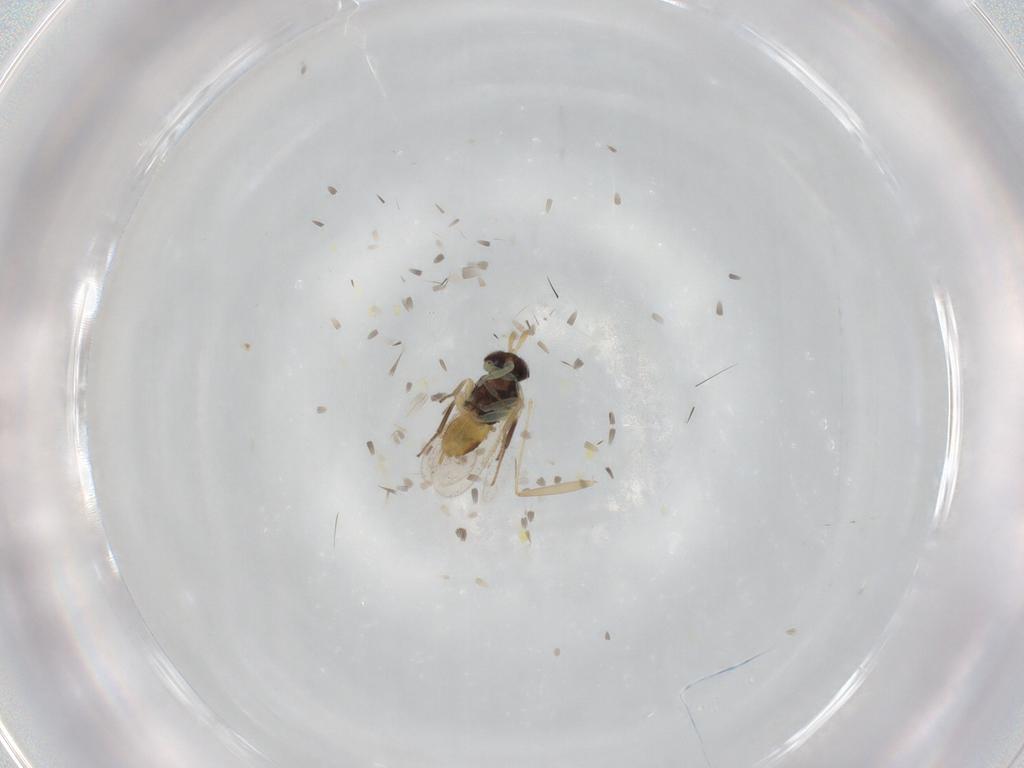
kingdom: Animalia
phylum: Arthropoda
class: Insecta
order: Hymenoptera
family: Aphelinidae
